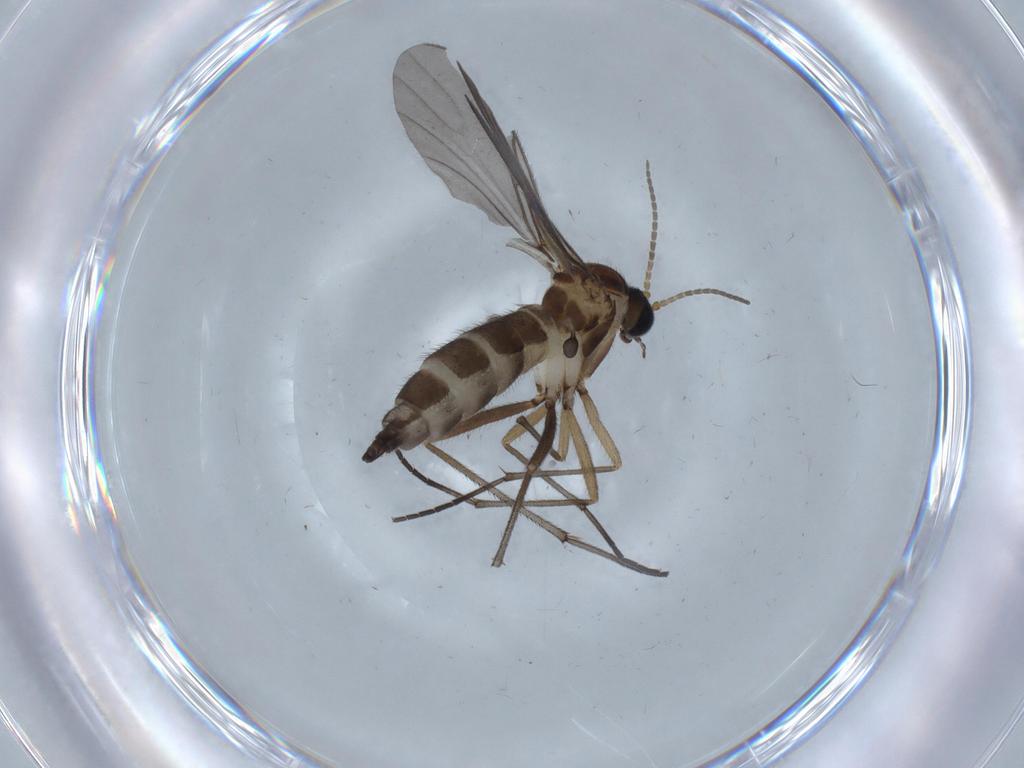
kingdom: Animalia
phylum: Arthropoda
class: Insecta
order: Diptera
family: Sciaridae
